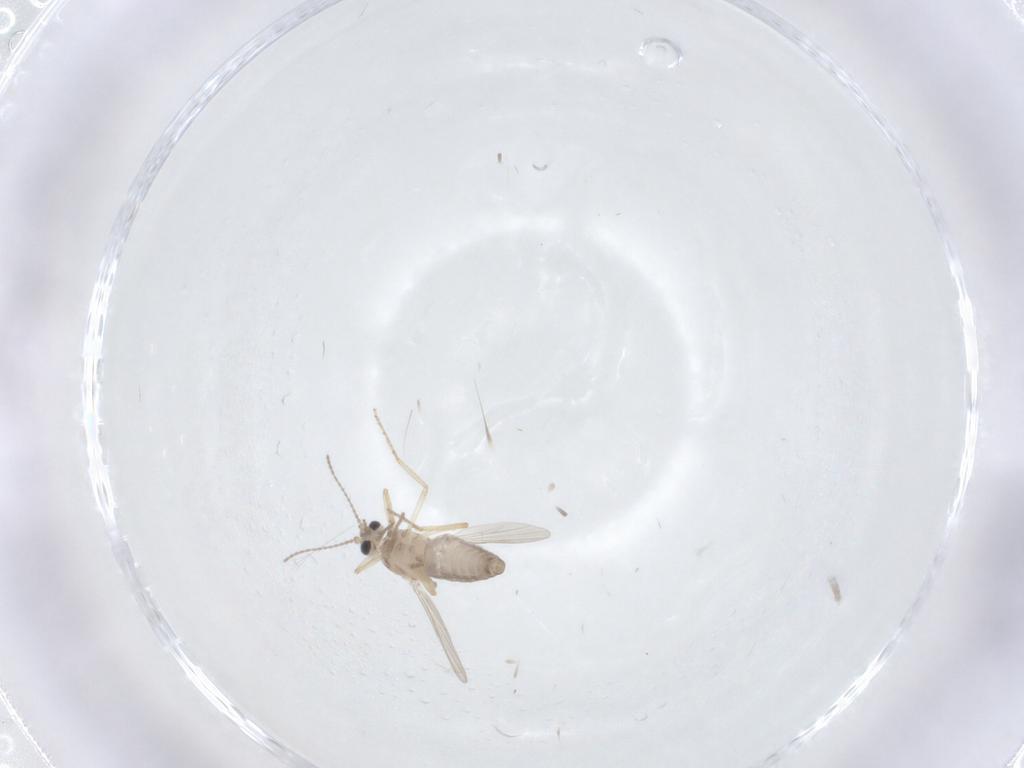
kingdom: Animalia
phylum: Arthropoda
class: Insecta
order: Diptera
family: Ceratopogonidae
